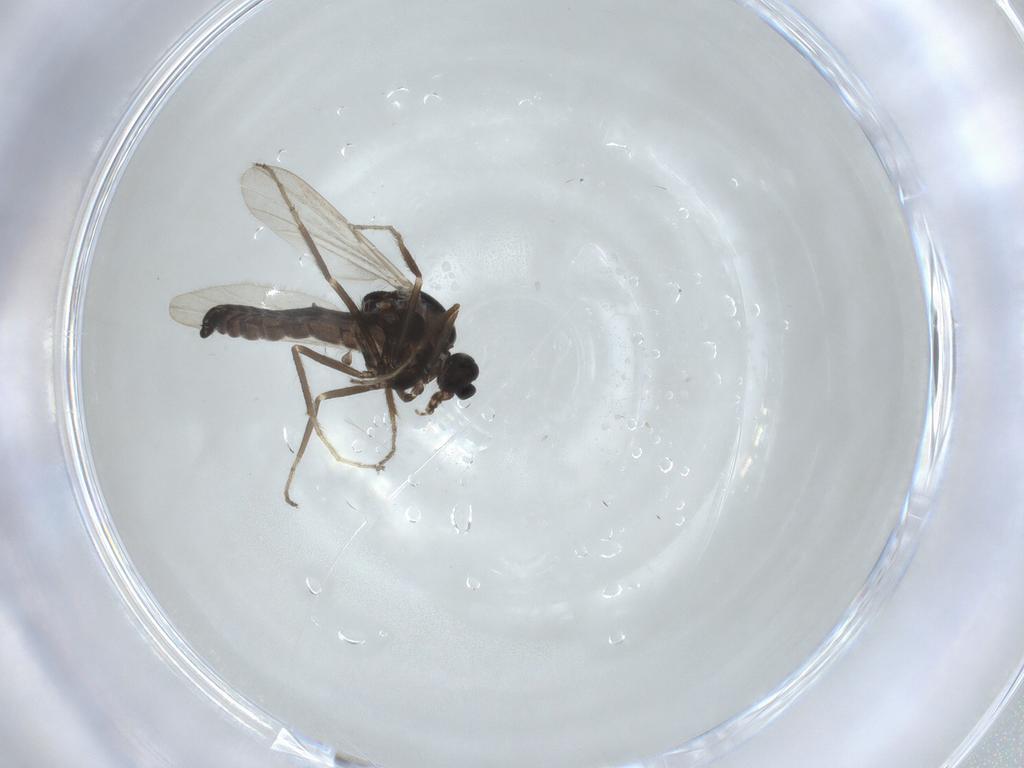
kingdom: Animalia
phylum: Arthropoda
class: Insecta
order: Diptera
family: Ceratopogonidae
